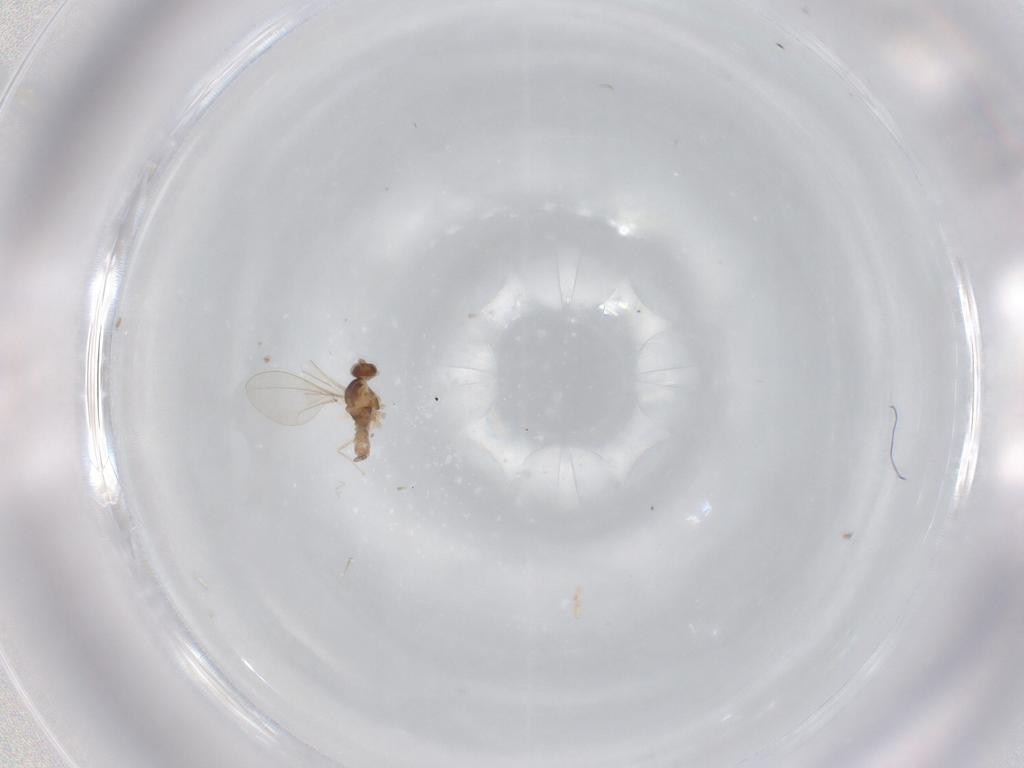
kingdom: Animalia
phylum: Arthropoda
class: Insecta
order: Diptera
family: Cecidomyiidae
